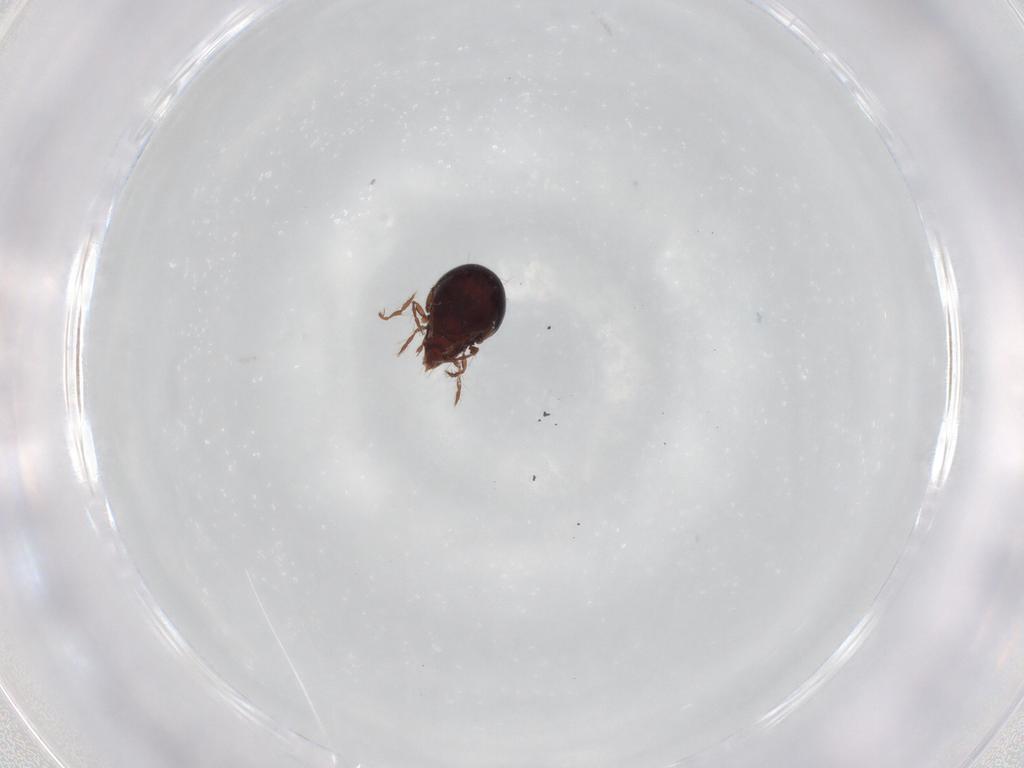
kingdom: Animalia
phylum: Arthropoda
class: Arachnida
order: Sarcoptiformes
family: Ceratoppiidae
